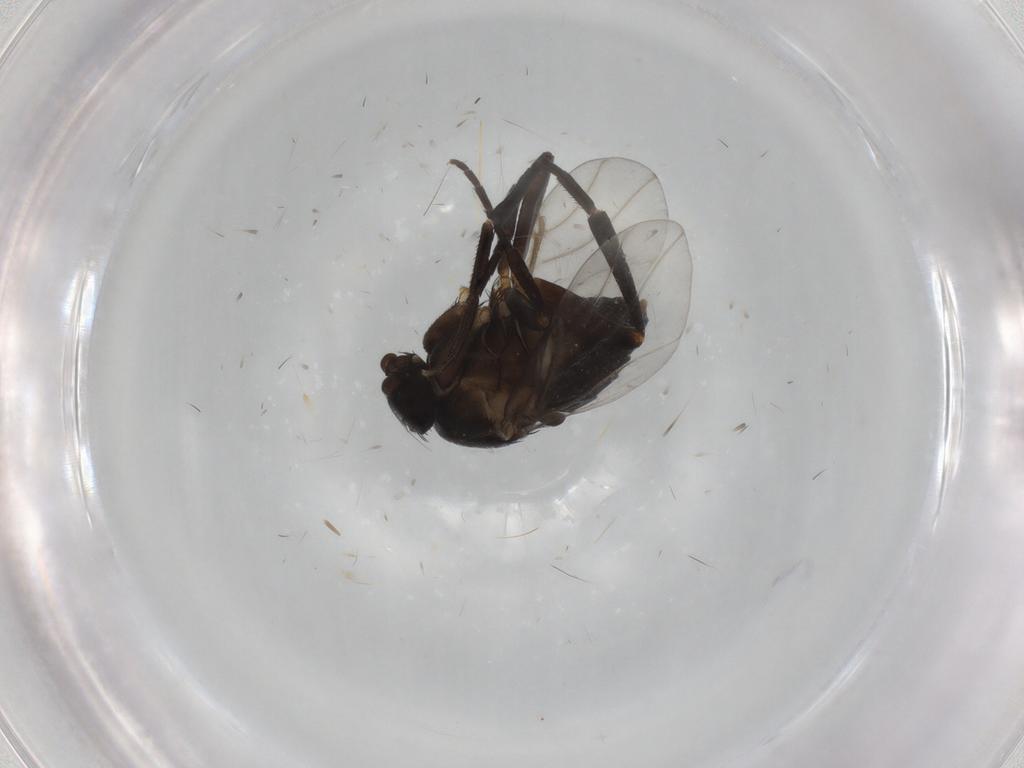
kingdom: Animalia
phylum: Arthropoda
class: Insecta
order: Diptera
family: Phoridae
